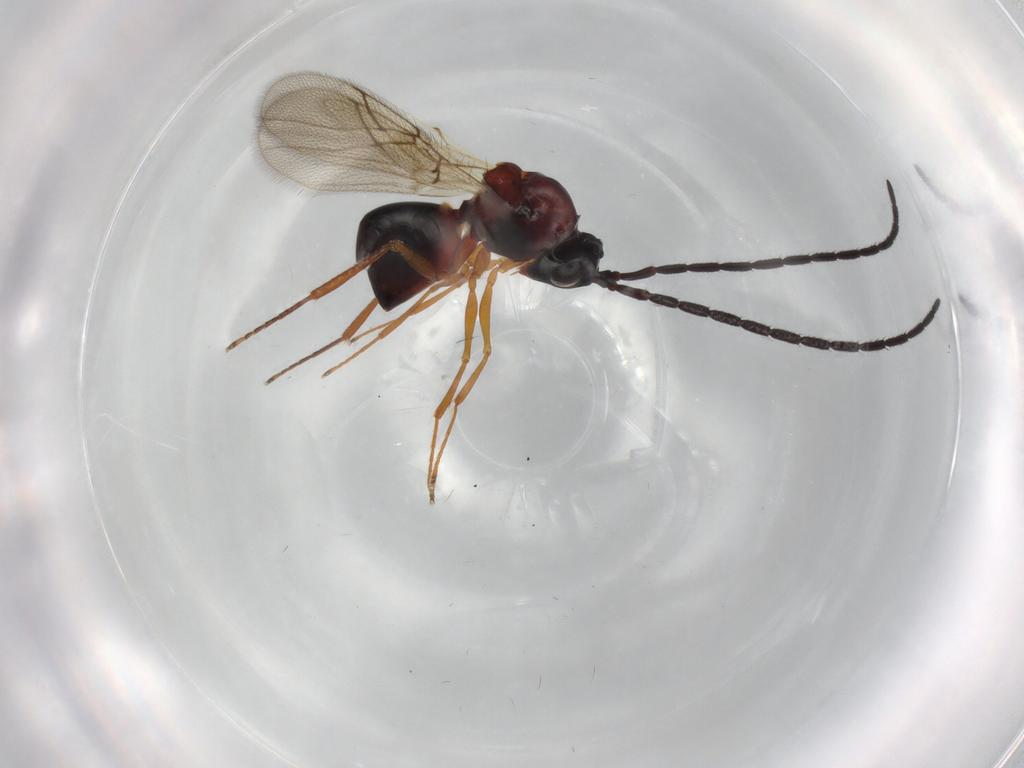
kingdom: Animalia
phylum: Arthropoda
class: Insecta
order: Hymenoptera
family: Figitidae
